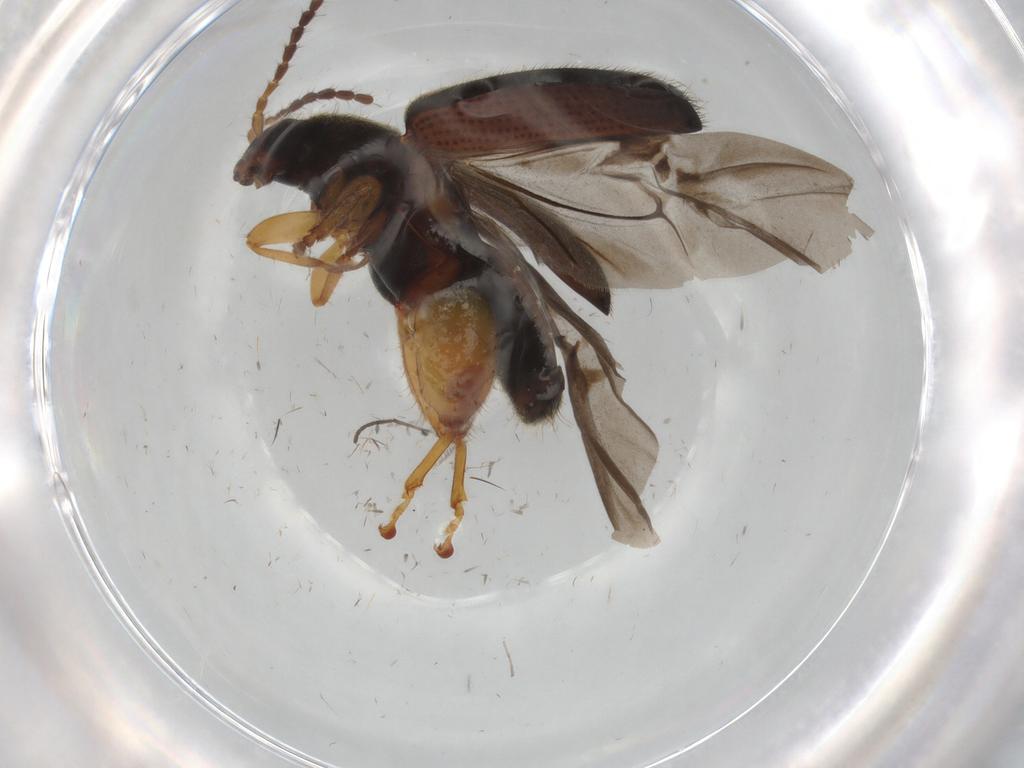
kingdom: Animalia
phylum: Arthropoda
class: Insecta
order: Coleoptera
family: Chrysomelidae
